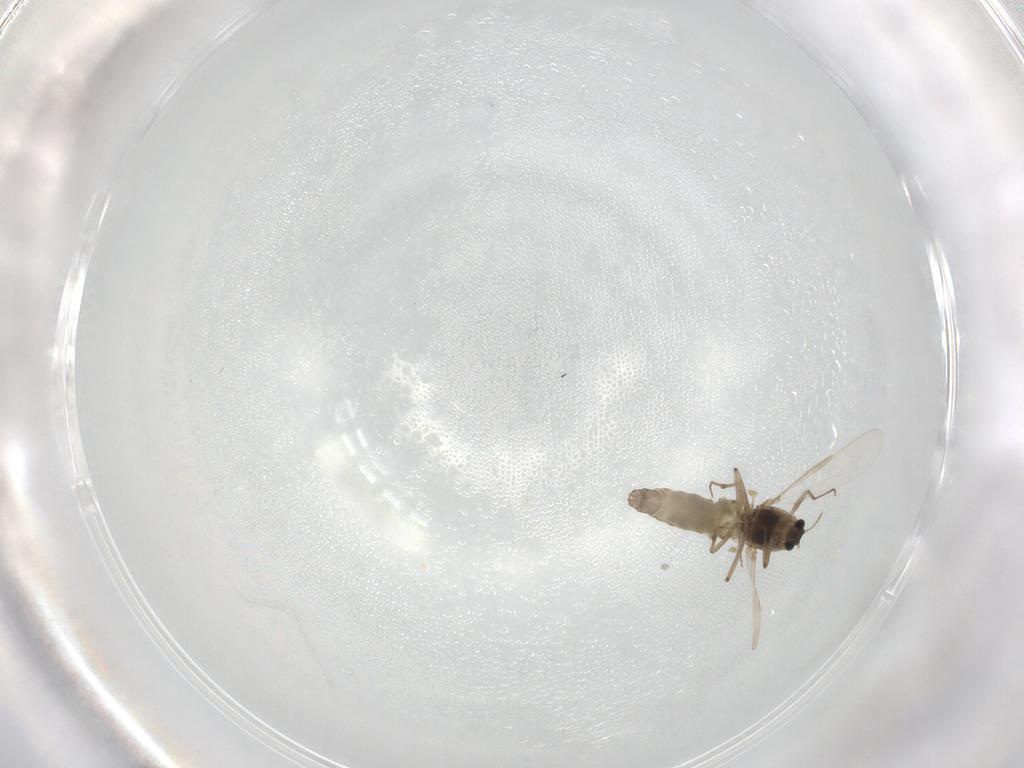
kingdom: Animalia
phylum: Arthropoda
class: Insecta
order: Diptera
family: Chironomidae
